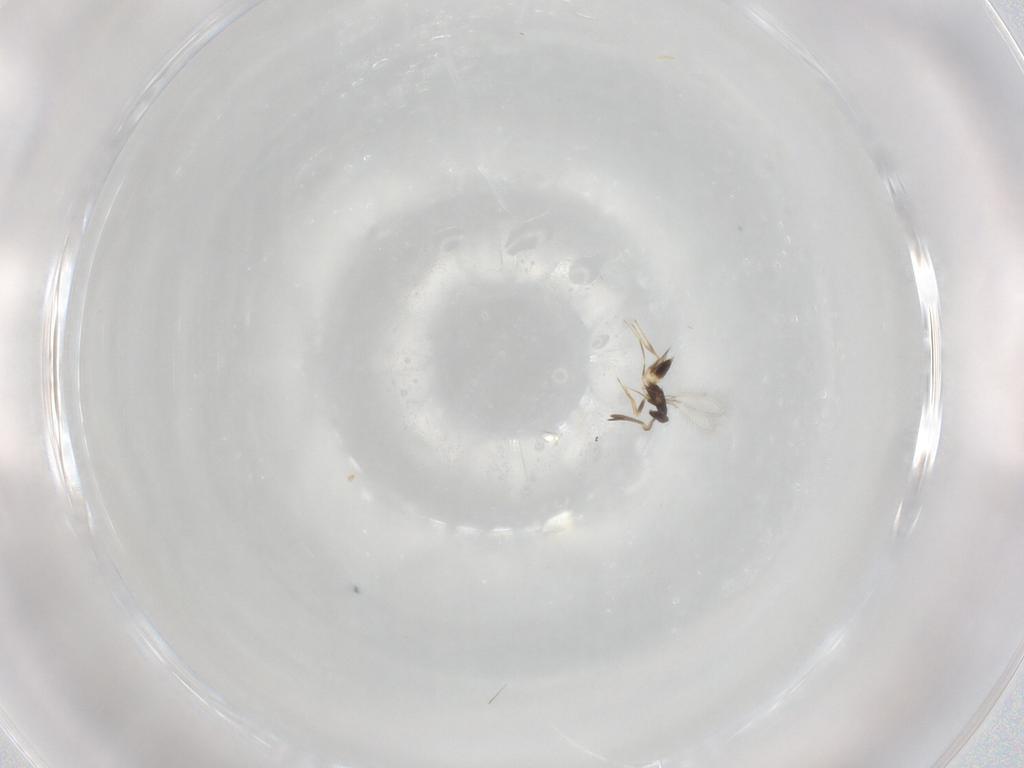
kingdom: Animalia
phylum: Arthropoda
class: Insecta
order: Hymenoptera
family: Mymaridae
